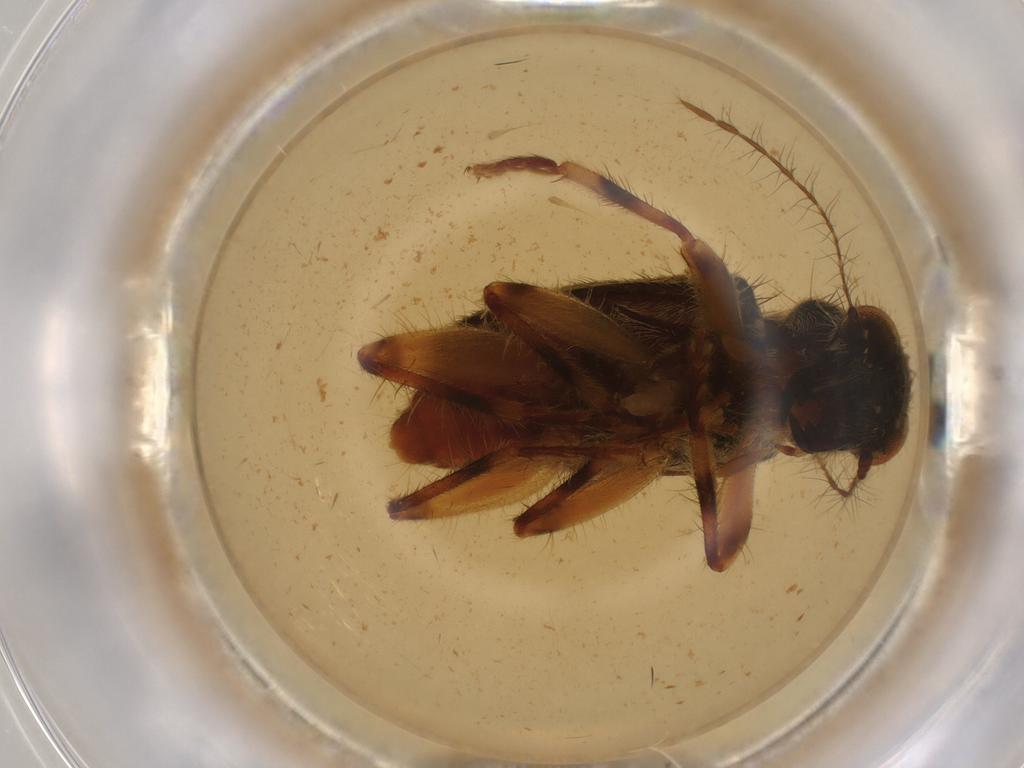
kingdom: Animalia
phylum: Arthropoda
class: Insecta
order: Diptera
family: Cecidomyiidae
